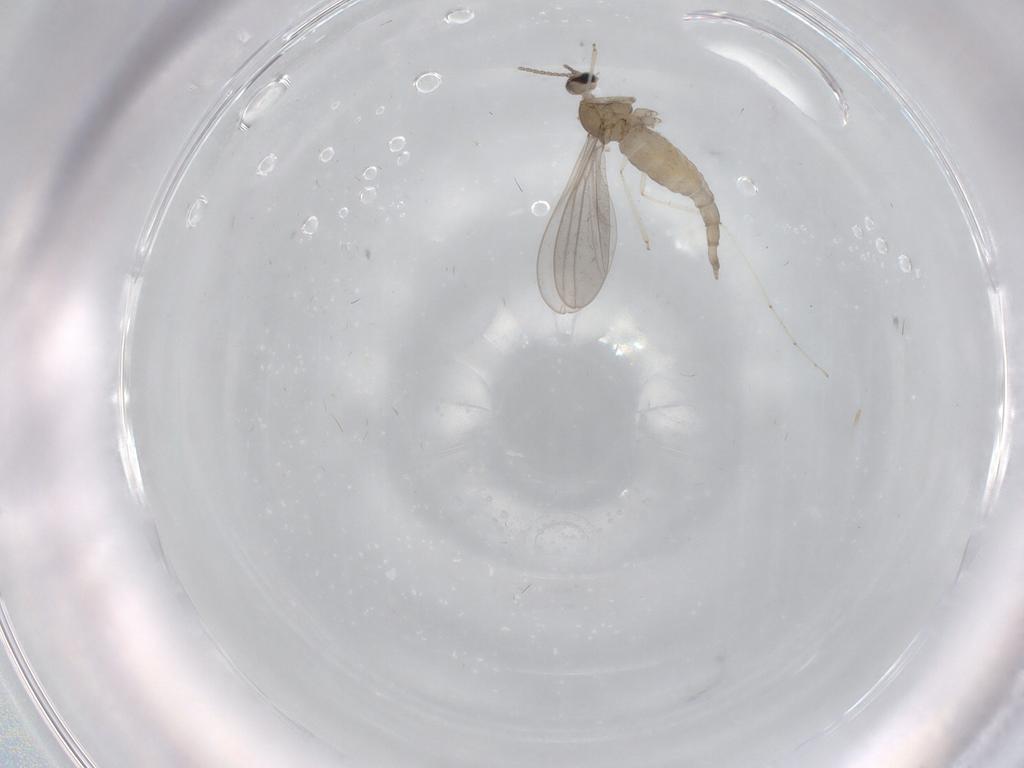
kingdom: Animalia
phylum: Arthropoda
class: Insecta
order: Diptera
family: Cecidomyiidae
